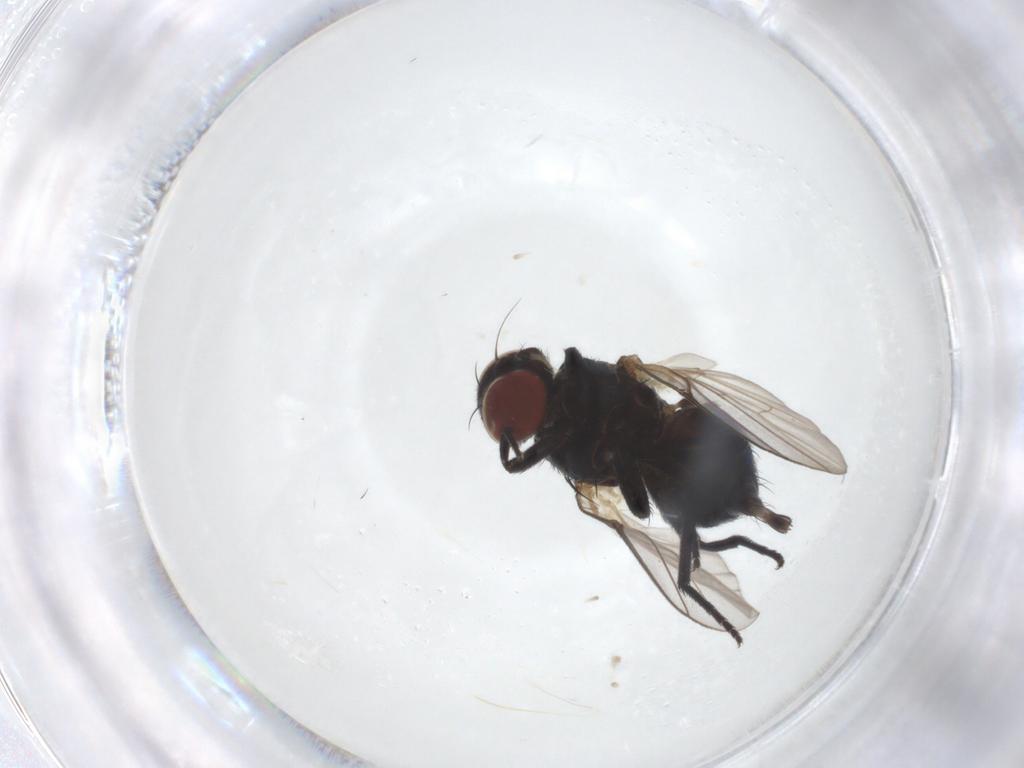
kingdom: Animalia
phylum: Arthropoda
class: Insecta
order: Diptera
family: Agromyzidae
